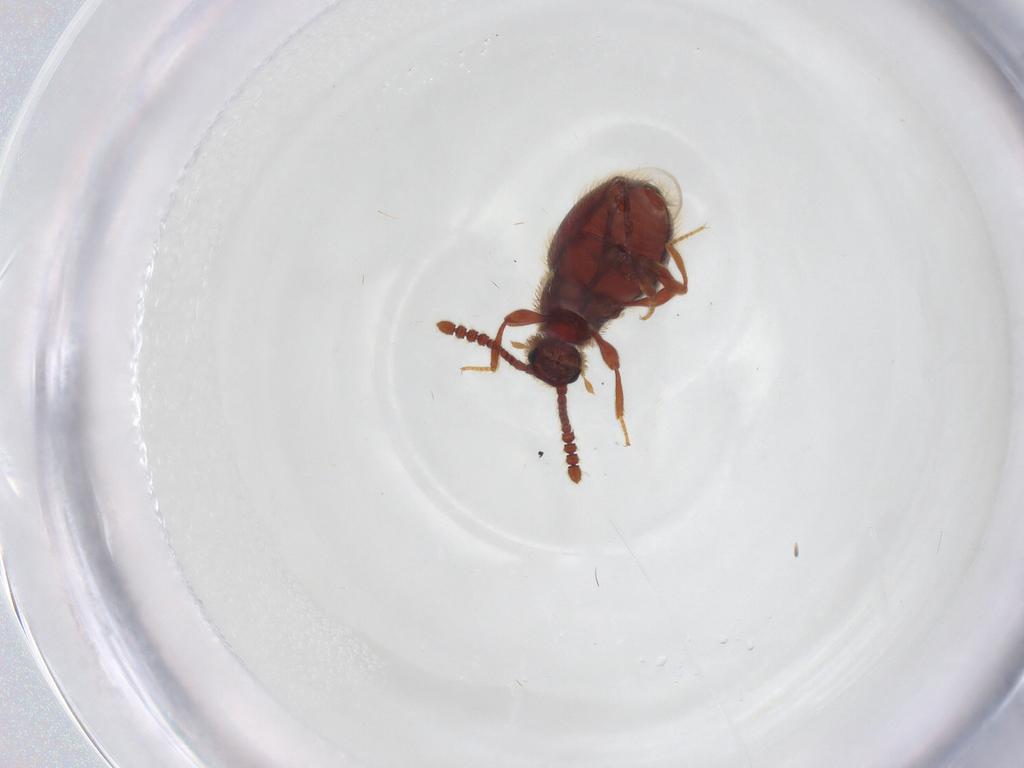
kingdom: Animalia
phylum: Arthropoda
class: Insecta
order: Coleoptera
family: Staphylinidae
